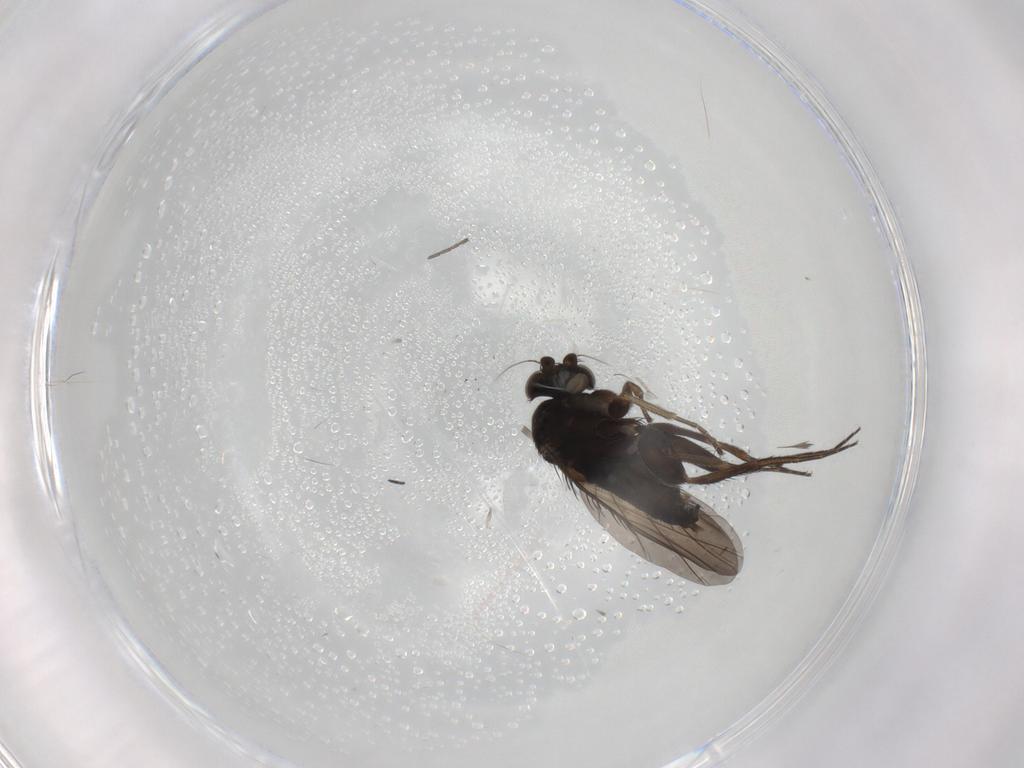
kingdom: Animalia
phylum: Arthropoda
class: Insecta
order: Diptera
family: Phoridae
